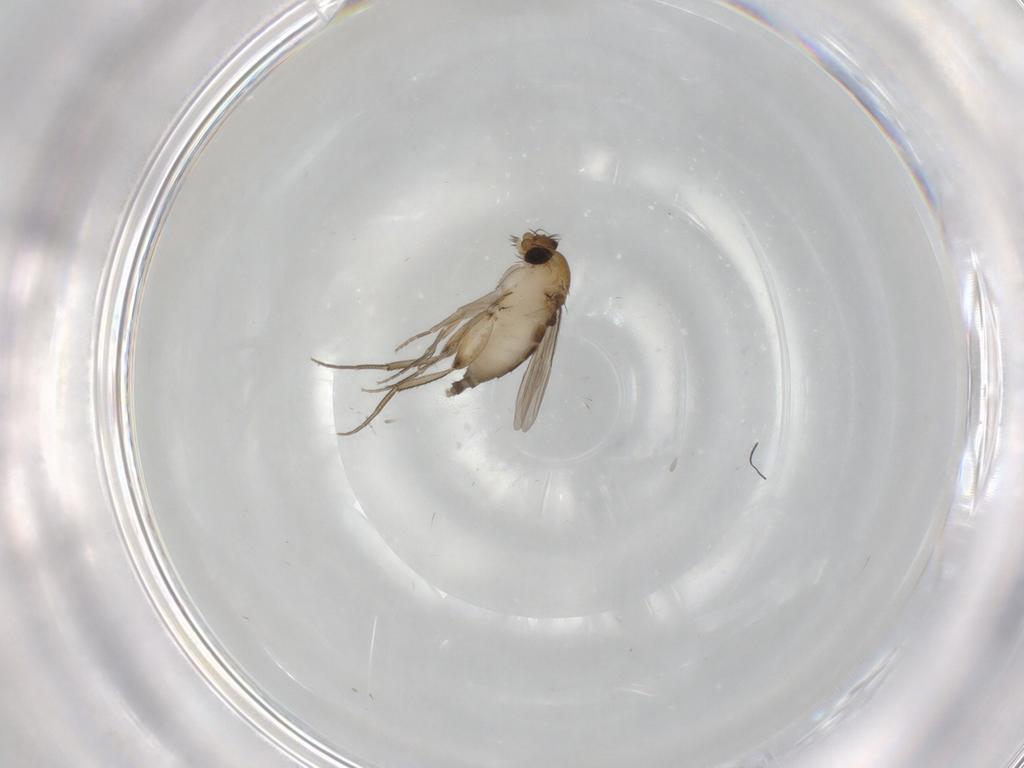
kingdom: Animalia
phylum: Arthropoda
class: Insecta
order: Diptera
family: Phoridae
